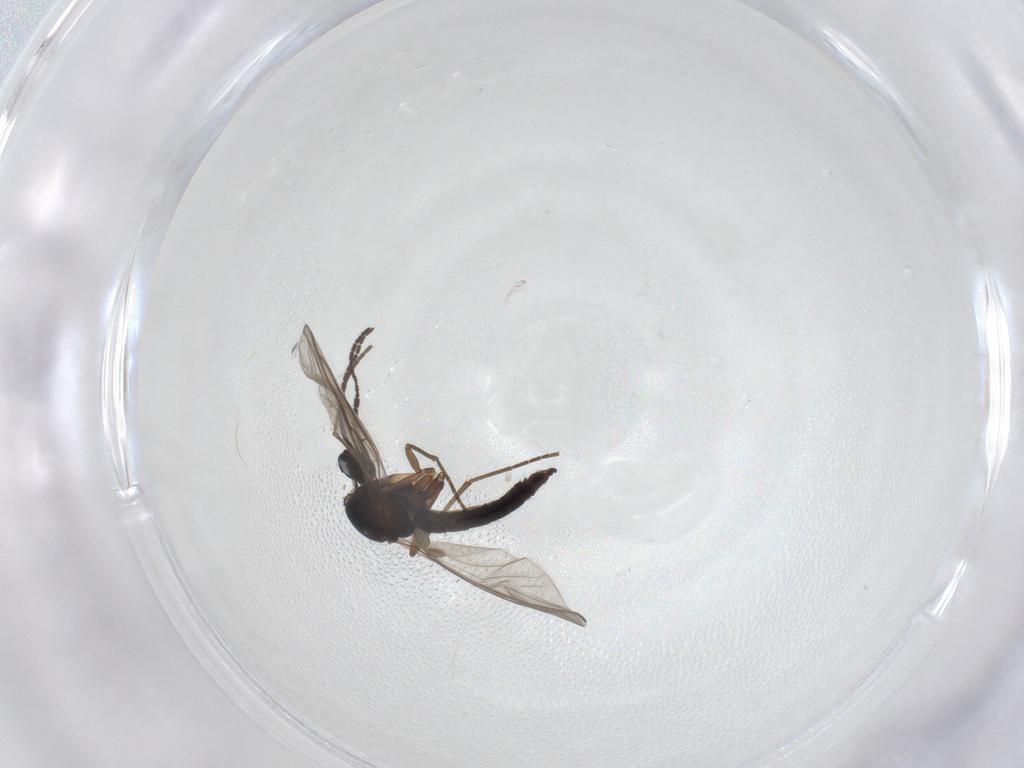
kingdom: Animalia
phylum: Arthropoda
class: Insecta
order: Diptera
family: Sciaridae
